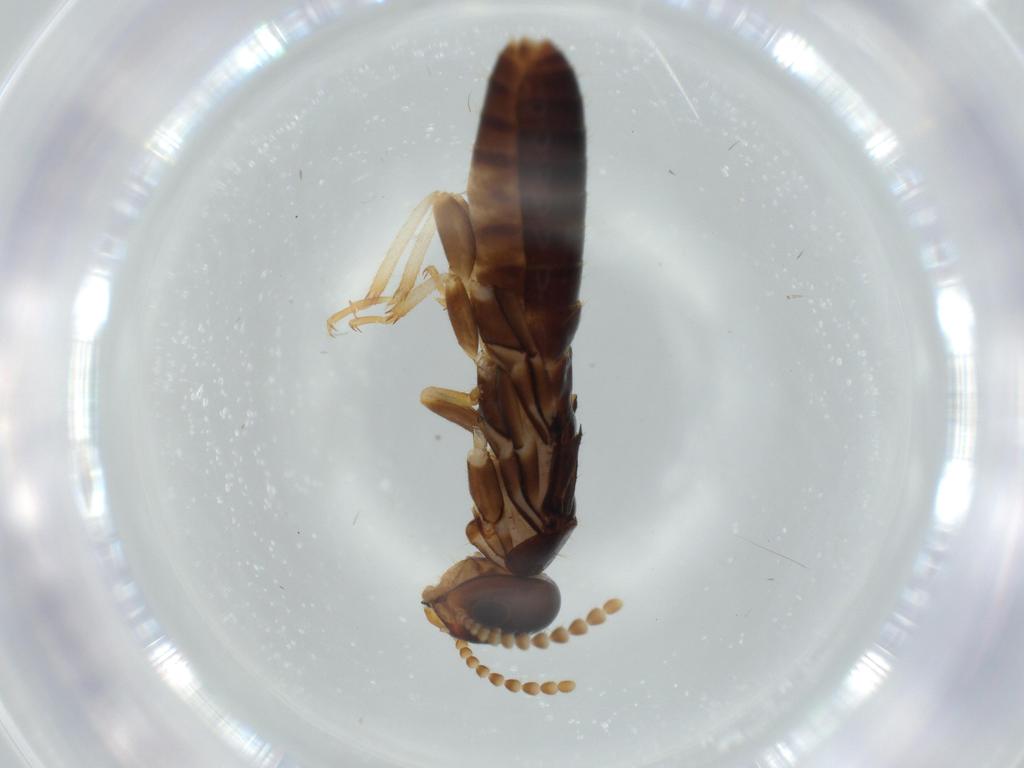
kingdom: Animalia
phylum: Arthropoda
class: Insecta
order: Blattodea
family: Kalotermitidae
